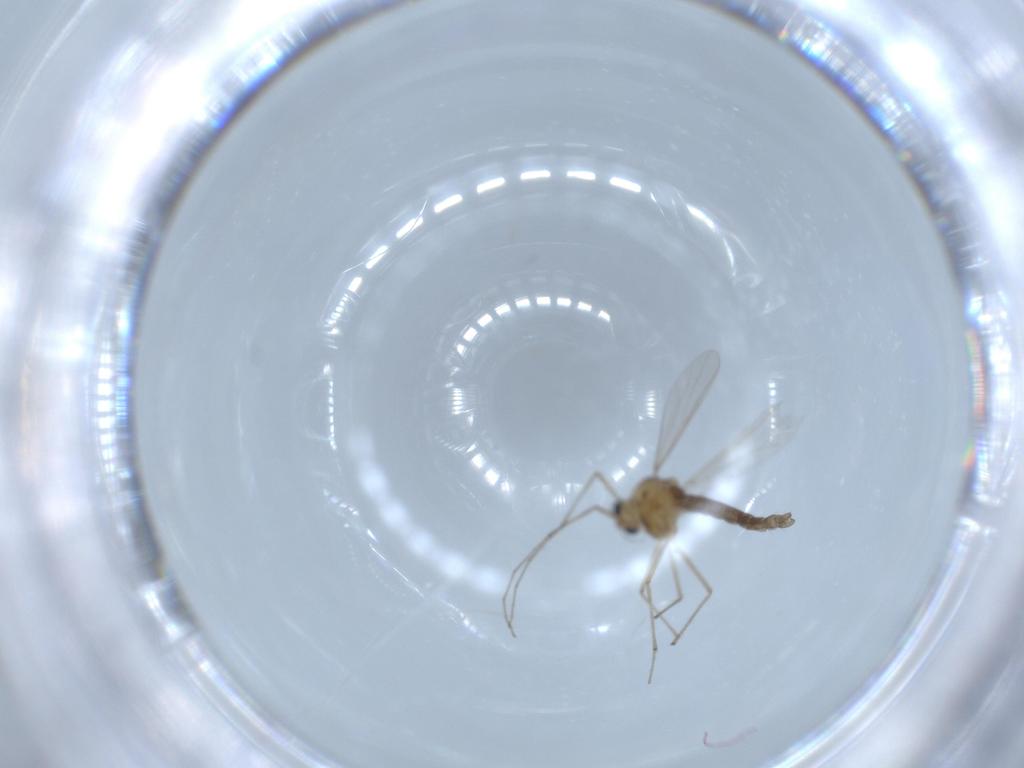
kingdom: Animalia
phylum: Arthropoda
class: Insecta
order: Diptera
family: Chironomidae
